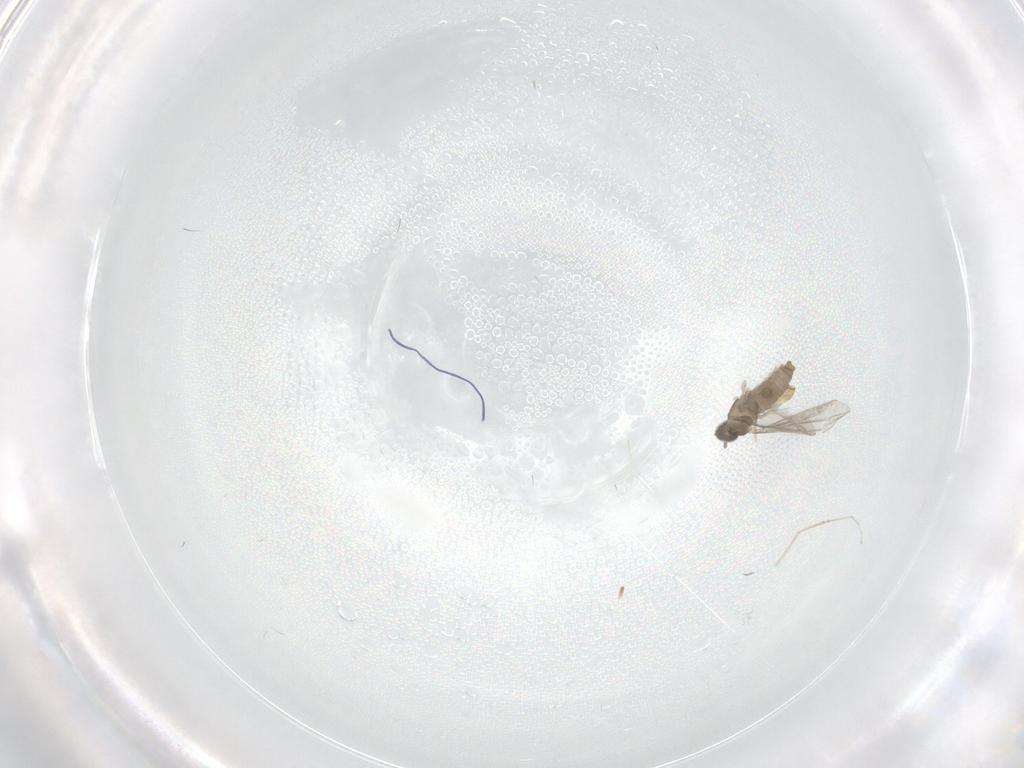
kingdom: Animalia
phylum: Arthropoda
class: Insecta
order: Diptera
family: Cecidomyiidae
